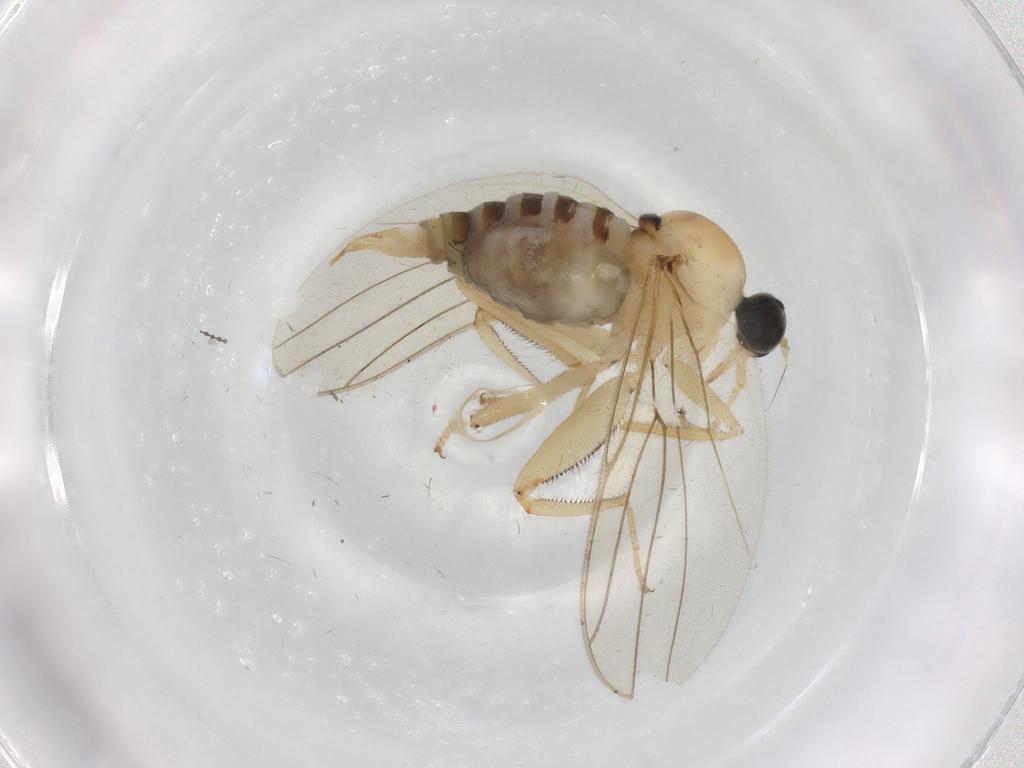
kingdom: Animalia
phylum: Arthropoda
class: Insecta
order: Diptera
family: Hybotidae
